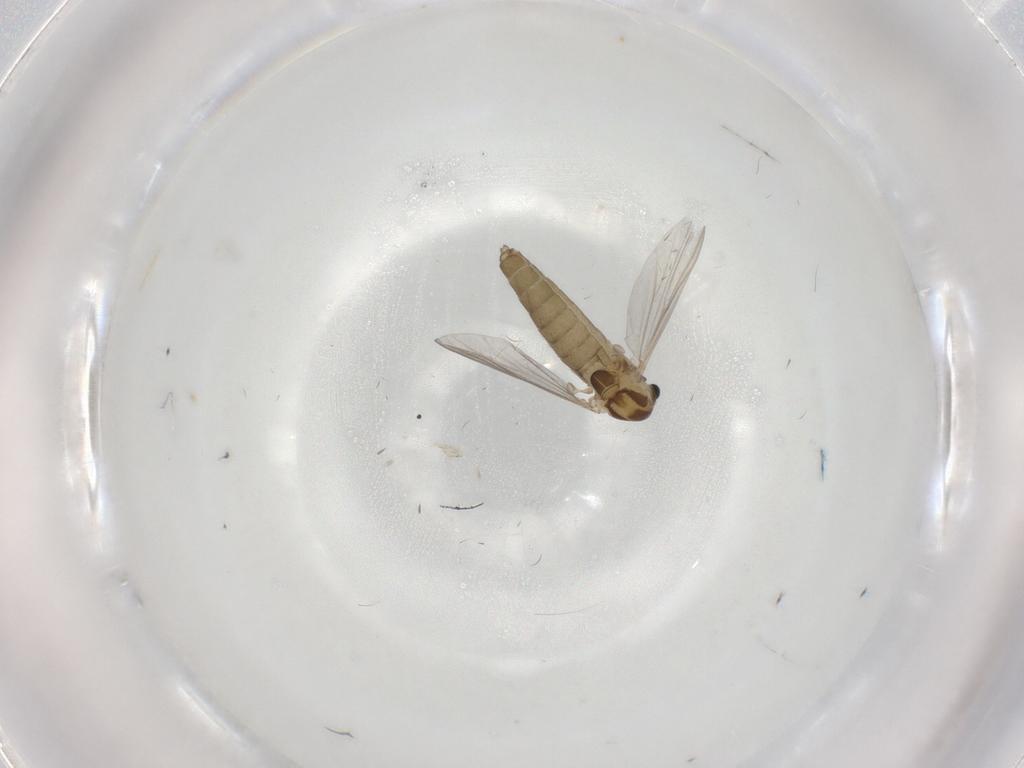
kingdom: Animalia
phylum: Arthropoda
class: Insecta
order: Diptera
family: Chironomidae
